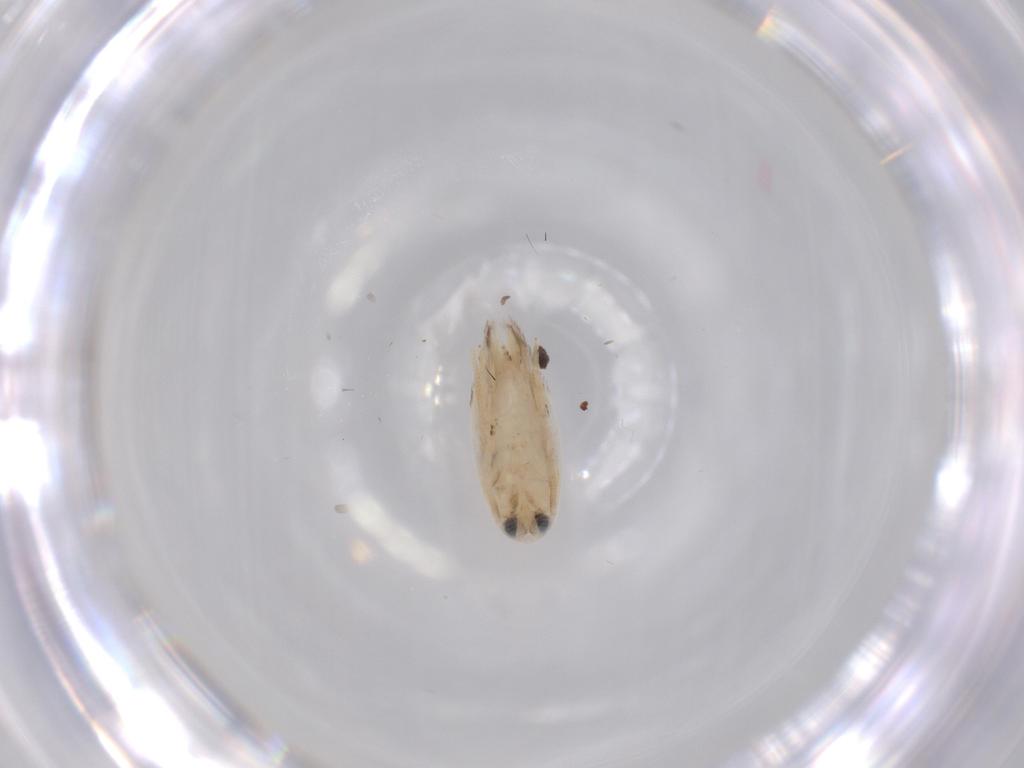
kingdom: Animalia
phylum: Arthropoda
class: Insecta
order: Lepidoptera
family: Opostegidae
